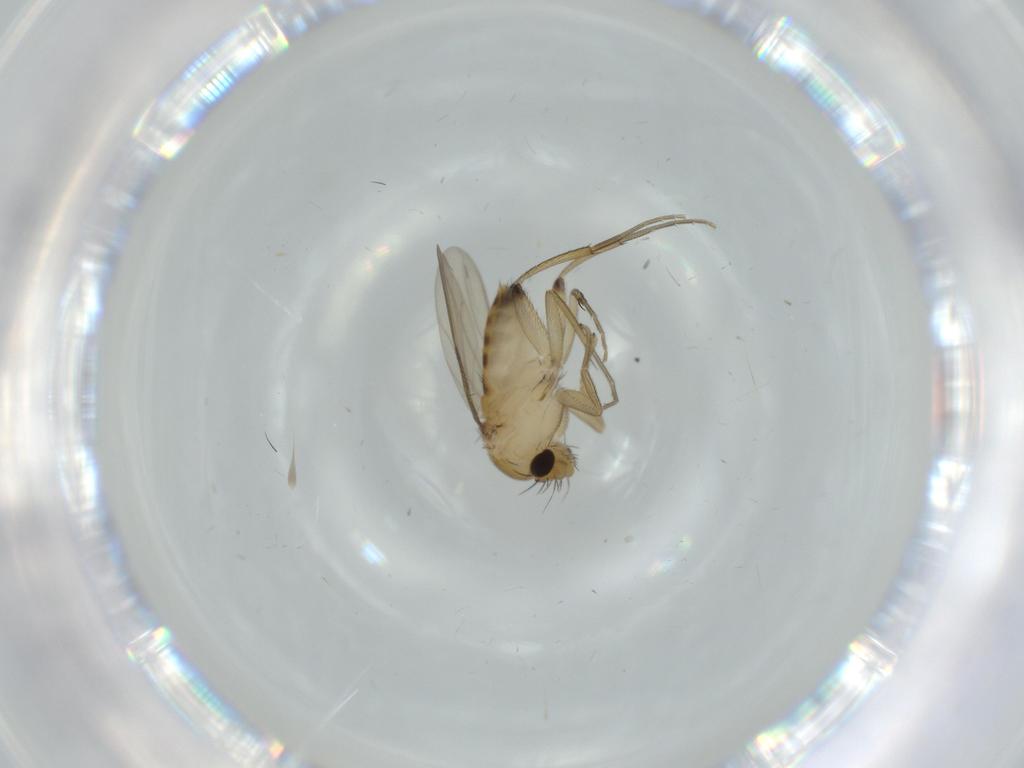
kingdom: Animalia
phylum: Arthropoda
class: Insecta
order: Diptera
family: Phoridae
